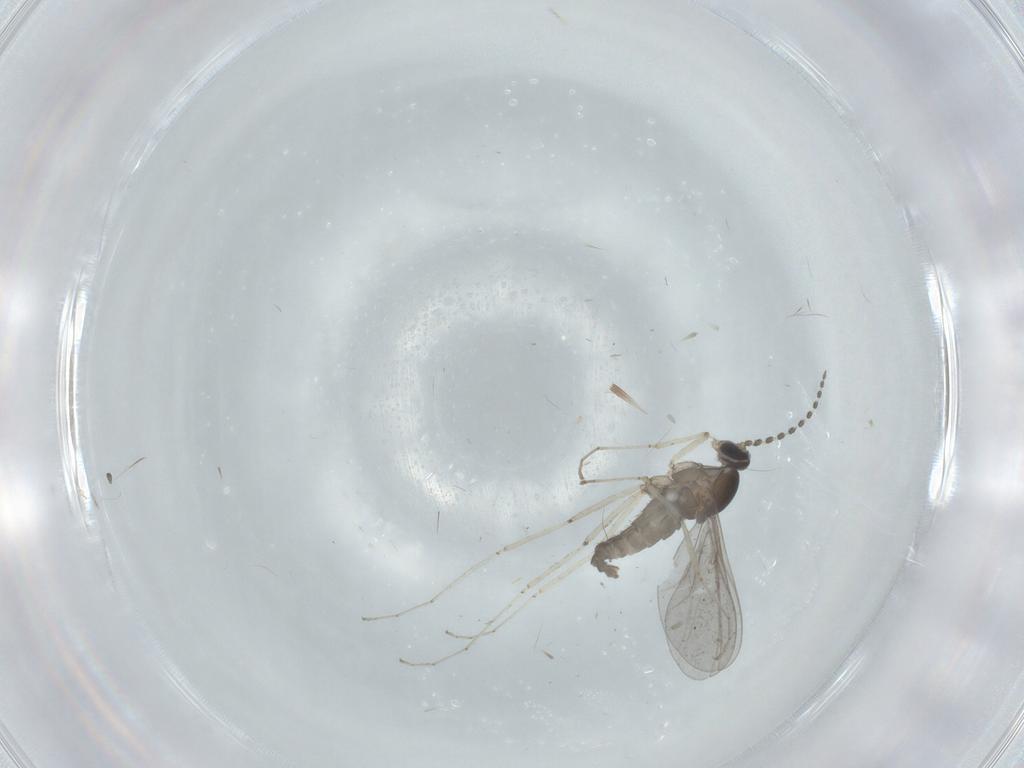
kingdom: Animalia
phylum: Arthropoda
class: Insecta
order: Diptera
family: Cecidomyiidae
